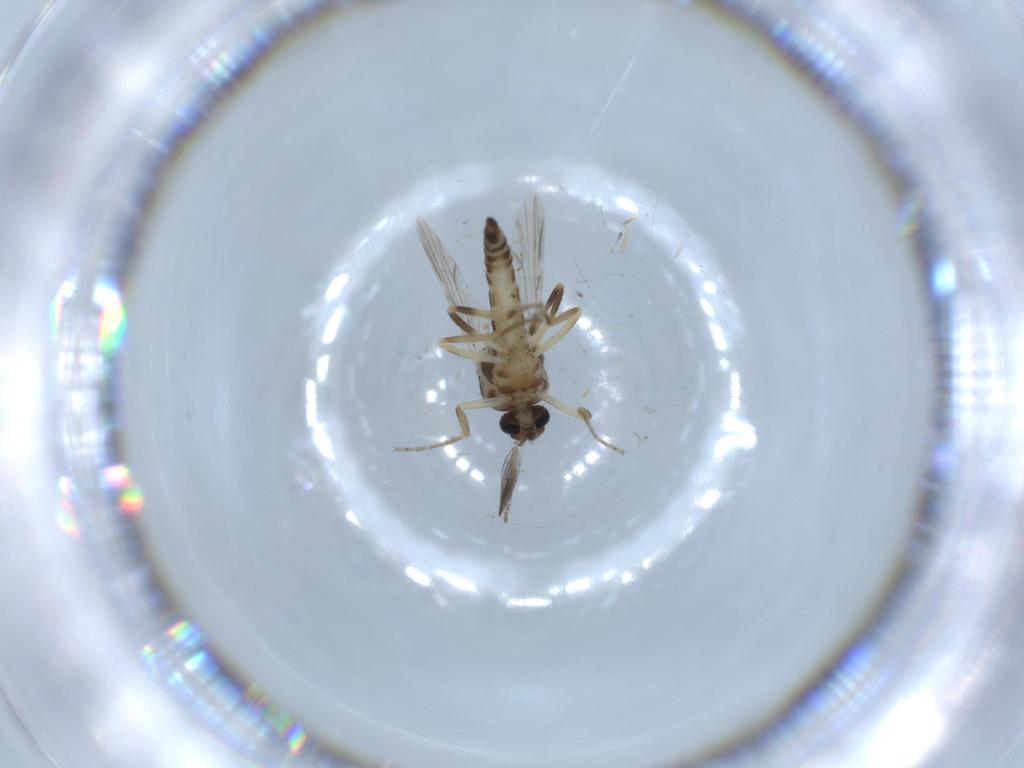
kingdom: Animalia
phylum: Arthropoda
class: Insecta
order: Diptera
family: Ceratopogonidae
